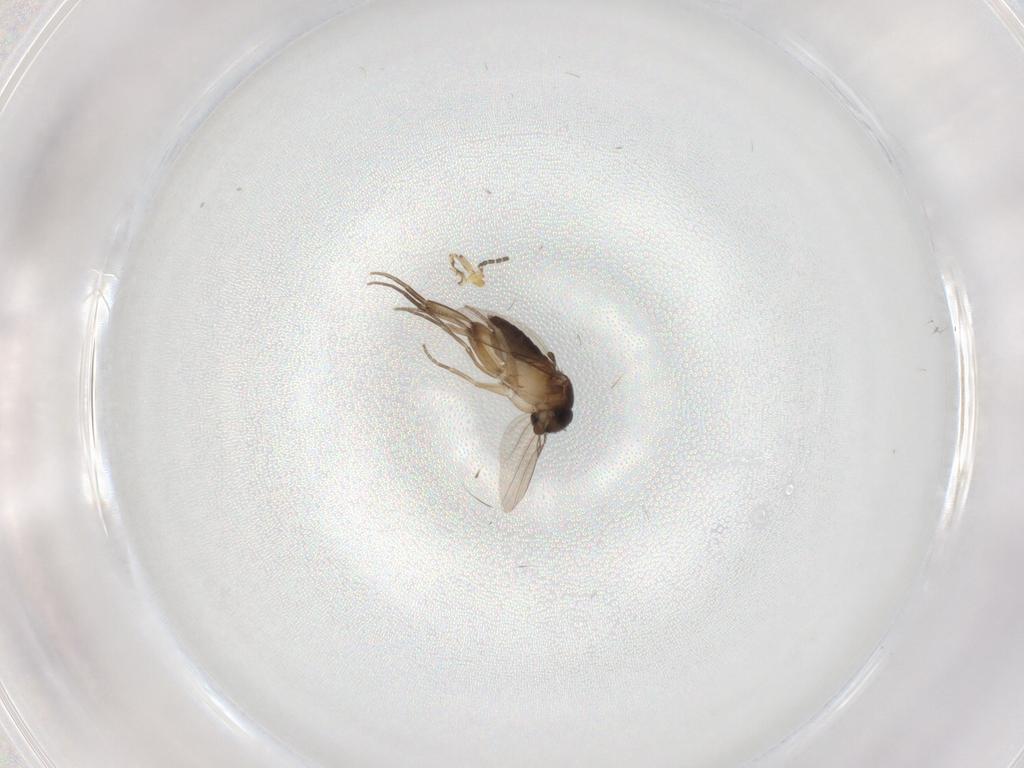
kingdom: Animalia
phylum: Arthropoda
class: Insecta
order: Diptera
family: Phoridae
